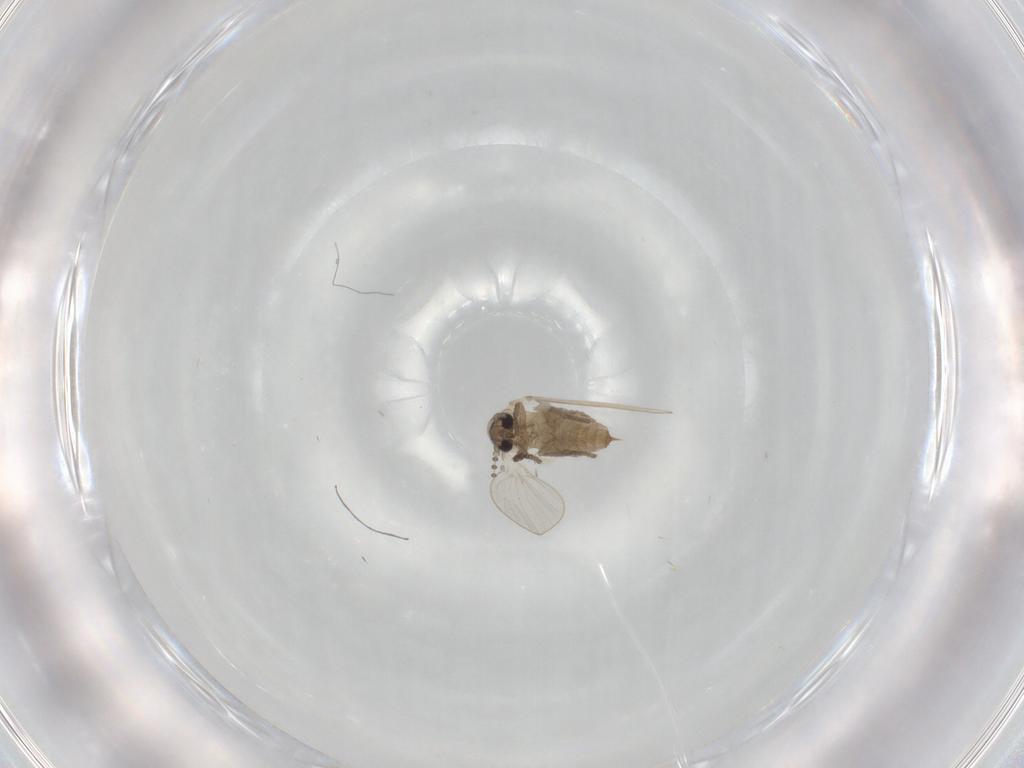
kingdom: Animalia
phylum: Arthropoda
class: Insecta
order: Diptera
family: Psychodidae
